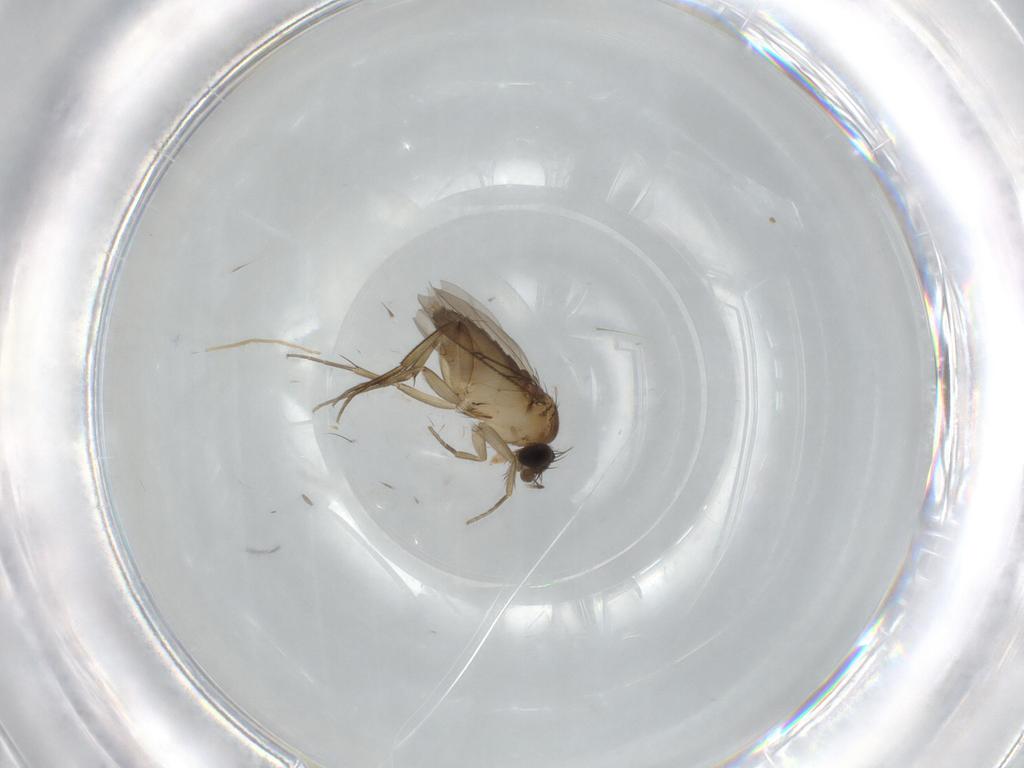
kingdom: Animalia
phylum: Arthropoda
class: Insecta
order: Diptera
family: Phoridae
